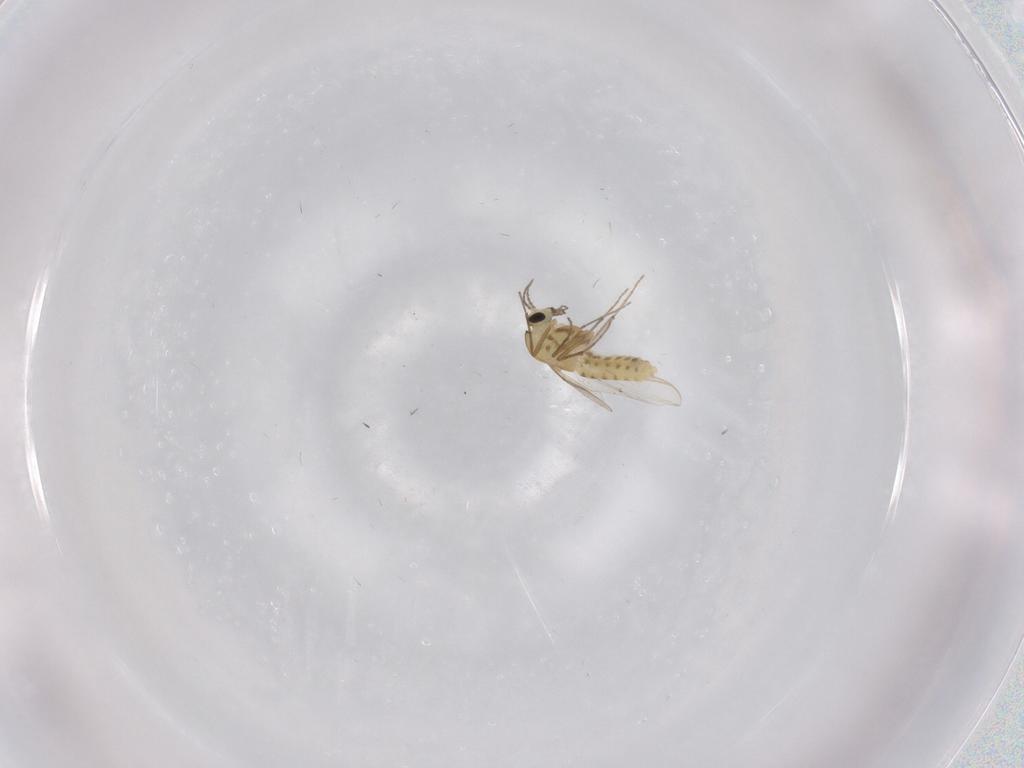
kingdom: Animalia
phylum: Arthropoda
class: Insecta
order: Diptera
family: Chironomidae
